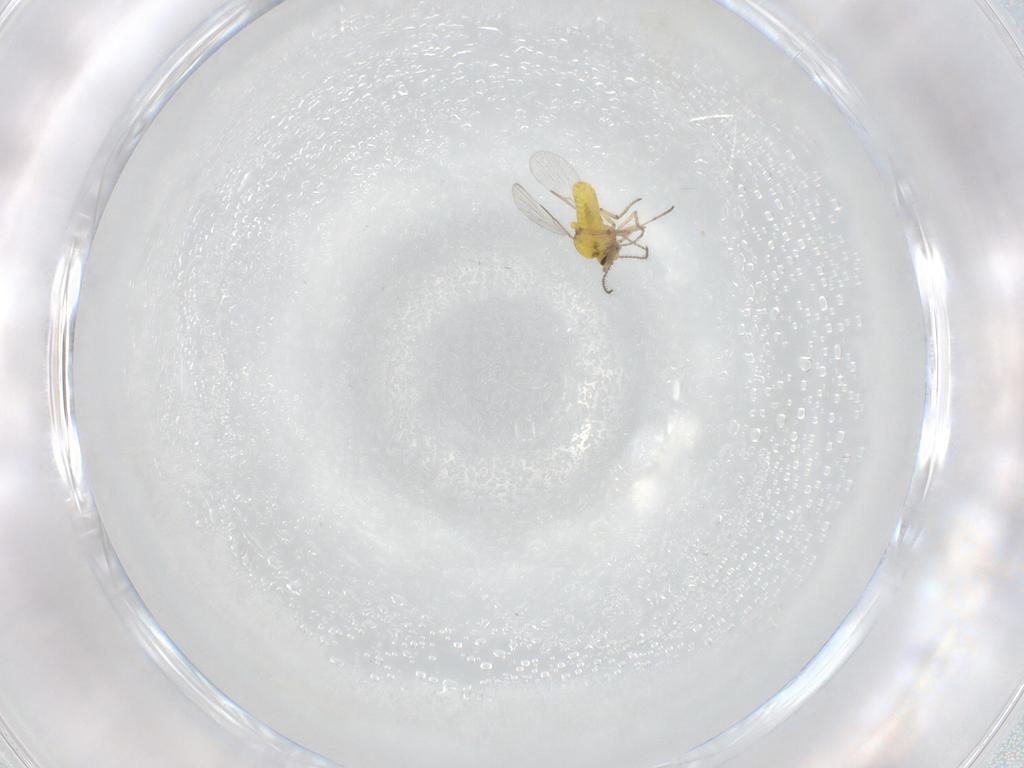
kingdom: Animalia
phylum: Arthropoda
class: Insecta
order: Diptera
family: Ceratopogonidae
